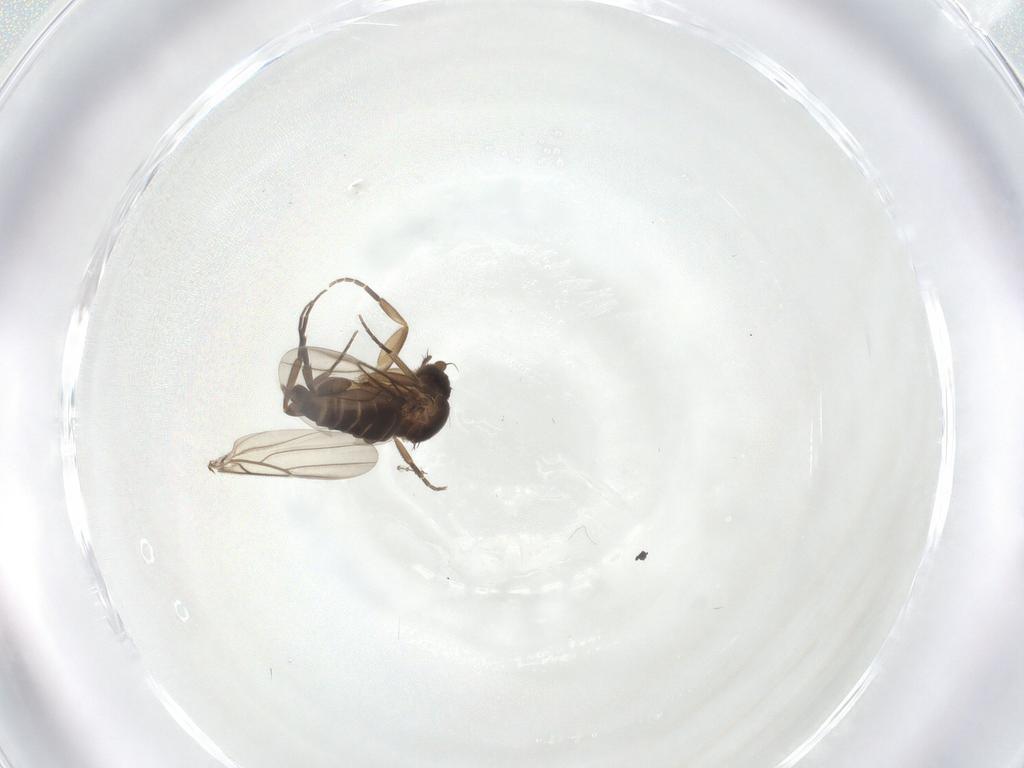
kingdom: Animalia
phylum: Arthropoda
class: Insecta
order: Diptera
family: Phoridae
